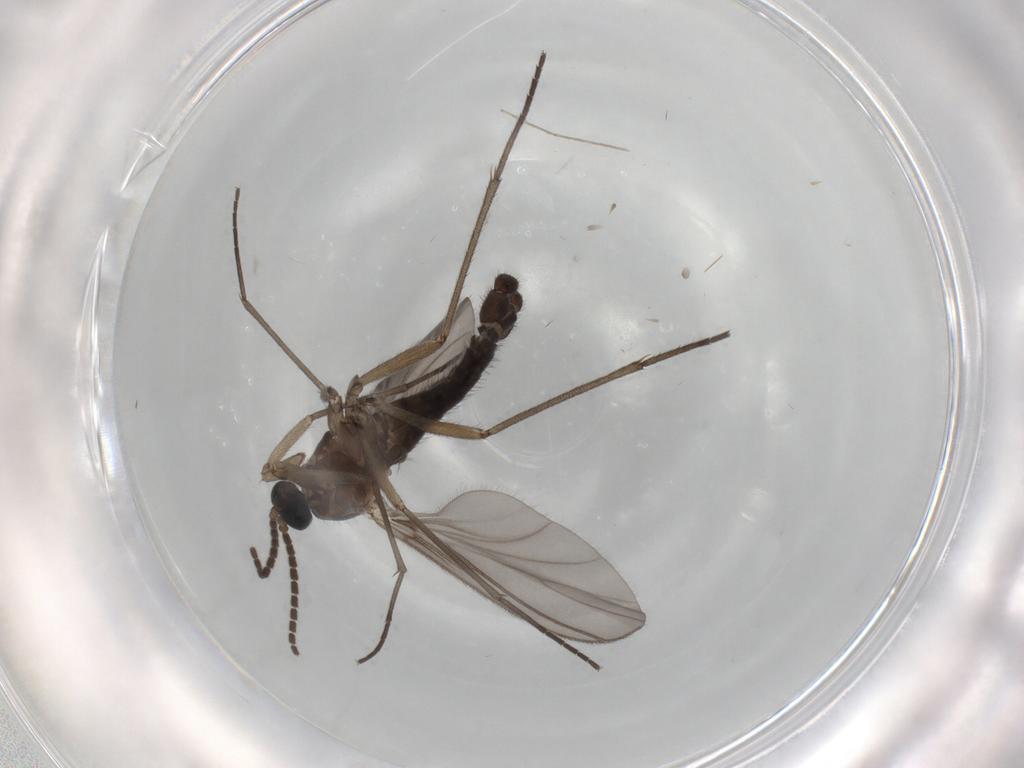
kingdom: Animalia
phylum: Arthropoda
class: Insecta
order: Diptera
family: Sciaridae
